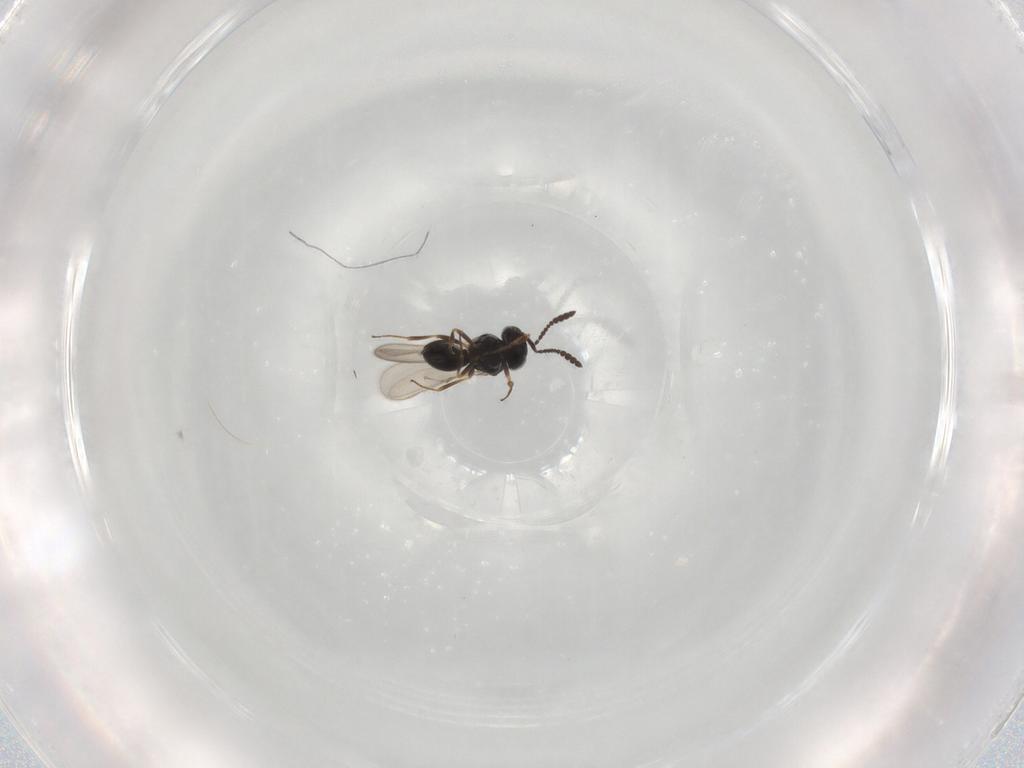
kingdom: Animalia
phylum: Arthropoda
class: Insecta
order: Hymenoptera
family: Scelionidae
